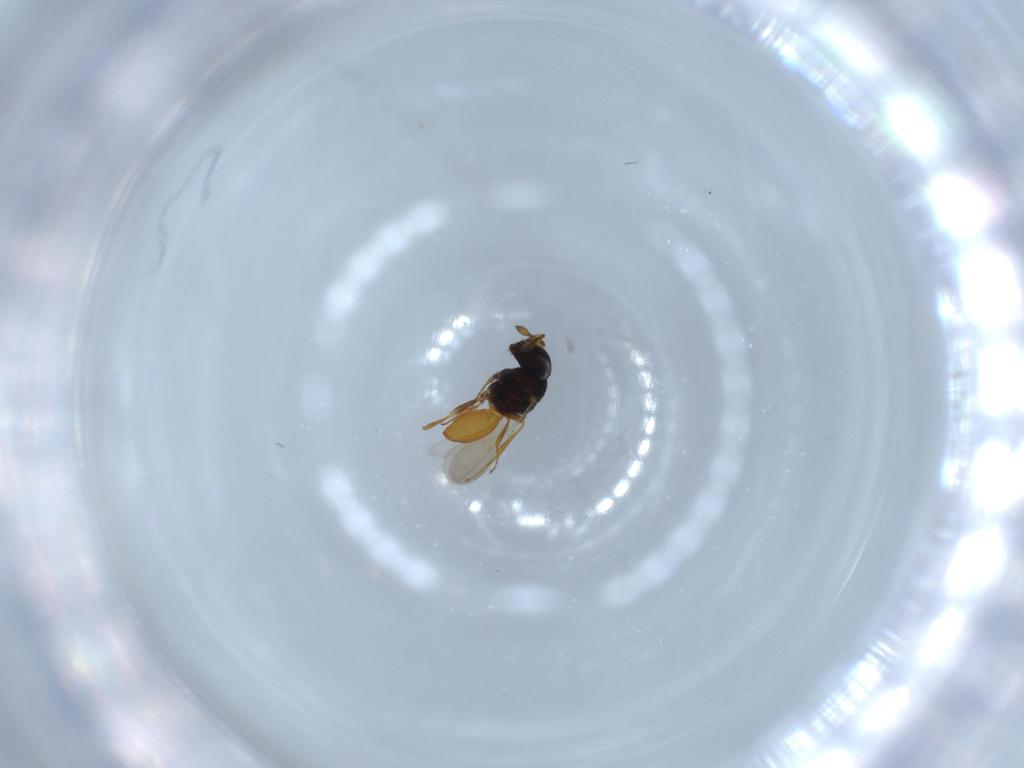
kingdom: Animalia
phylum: Arthropoda
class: Insecta
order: Hymenoptera
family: Scelionidae
